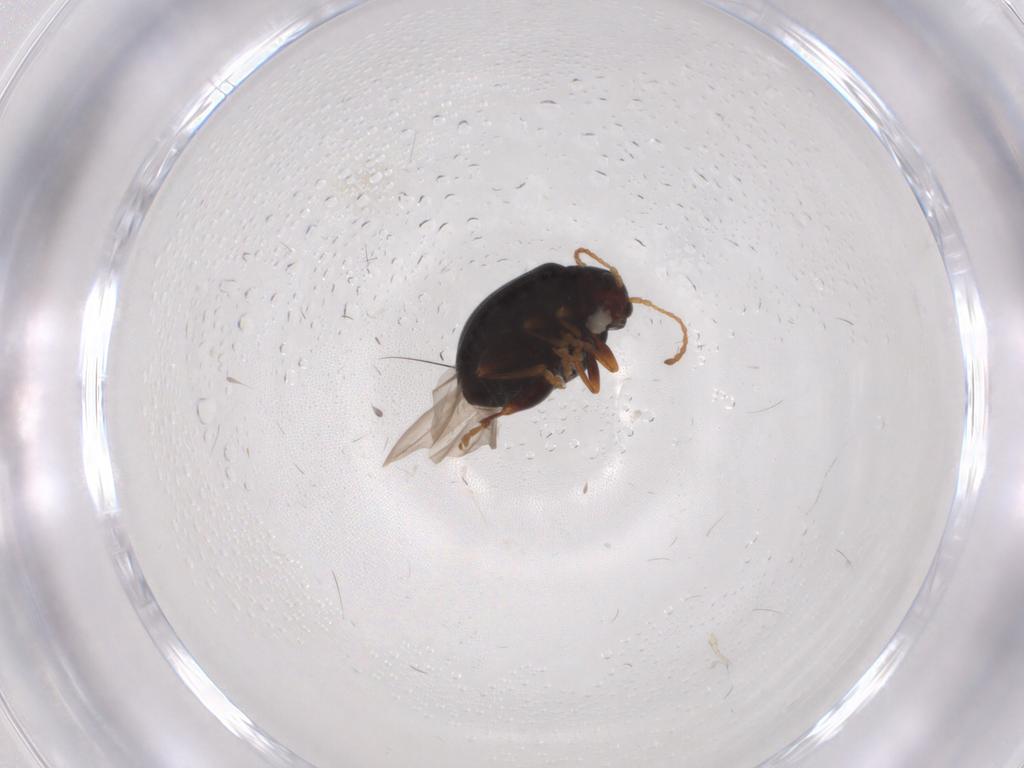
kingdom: Animalia
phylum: Arthropoda
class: Insecta
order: Coleoptera
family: Chrysomelidae
